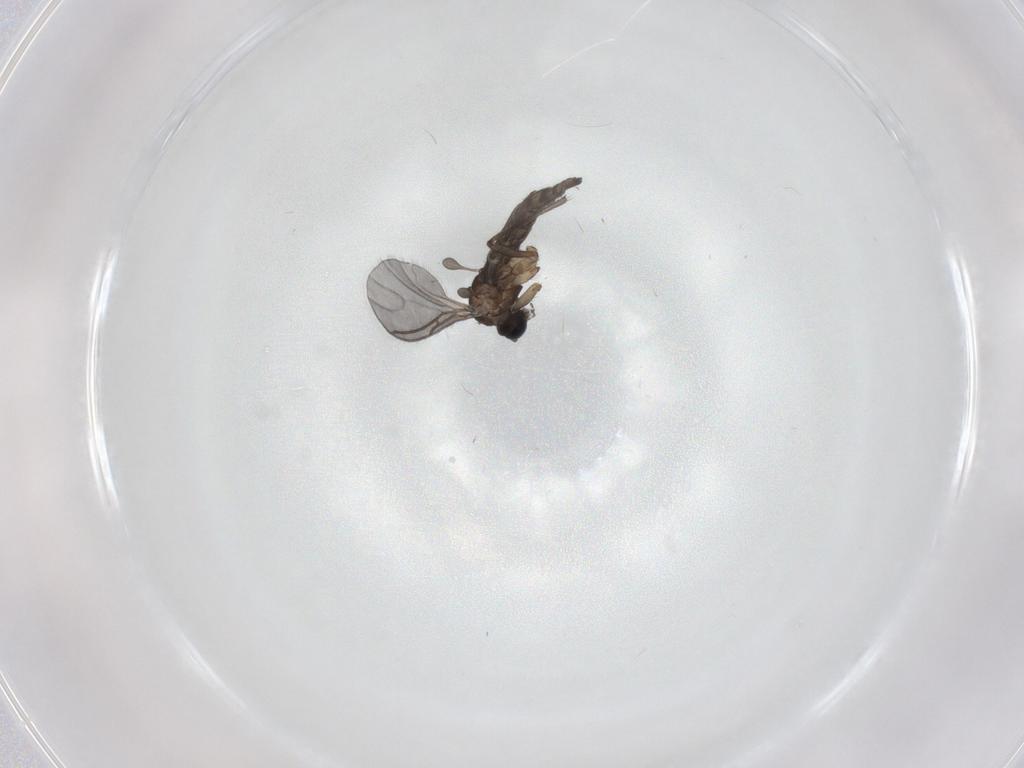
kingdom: Animalia
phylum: Arthropoda
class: Insecta
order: Diptera
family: Sciaridae
